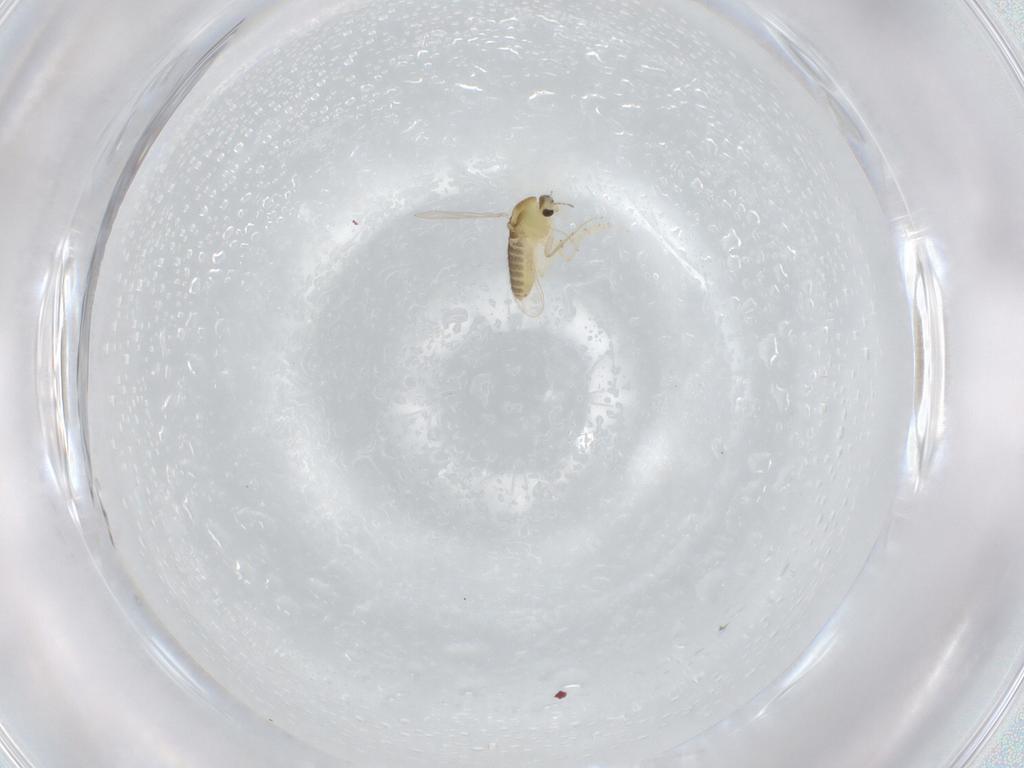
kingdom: Animalia
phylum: Arthropoda
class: Insecta
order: Diptera
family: Chironomidae
